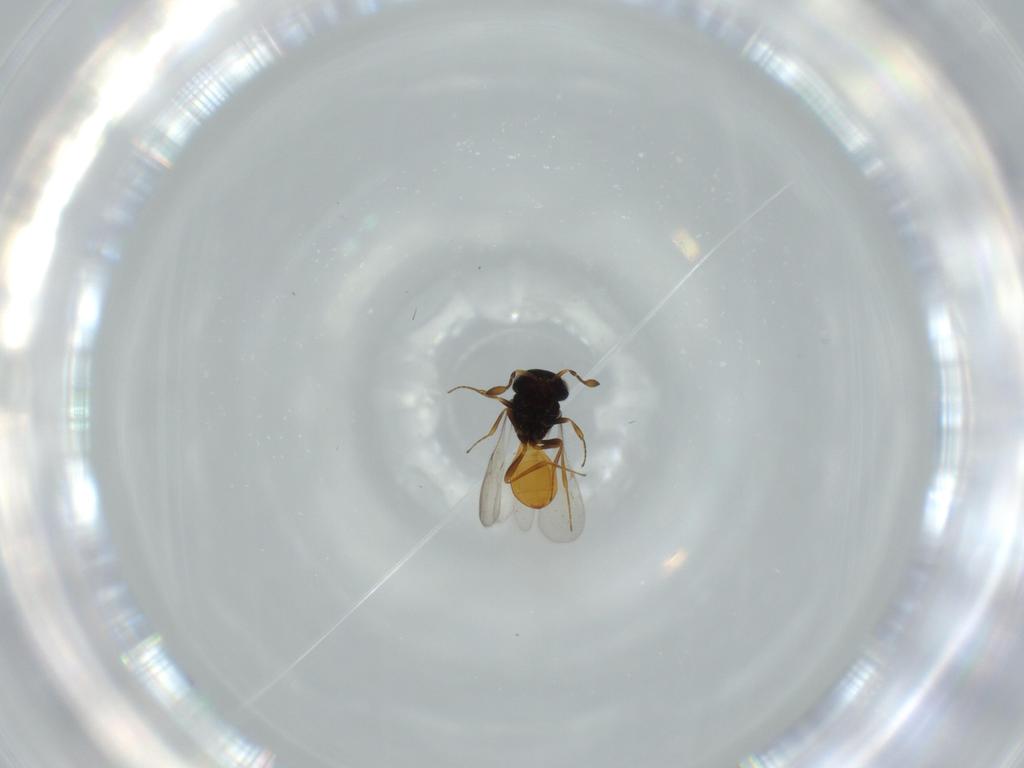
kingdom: Animalia
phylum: Arthropoda
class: Insecta
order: Hymenoptera
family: Scelionidae
